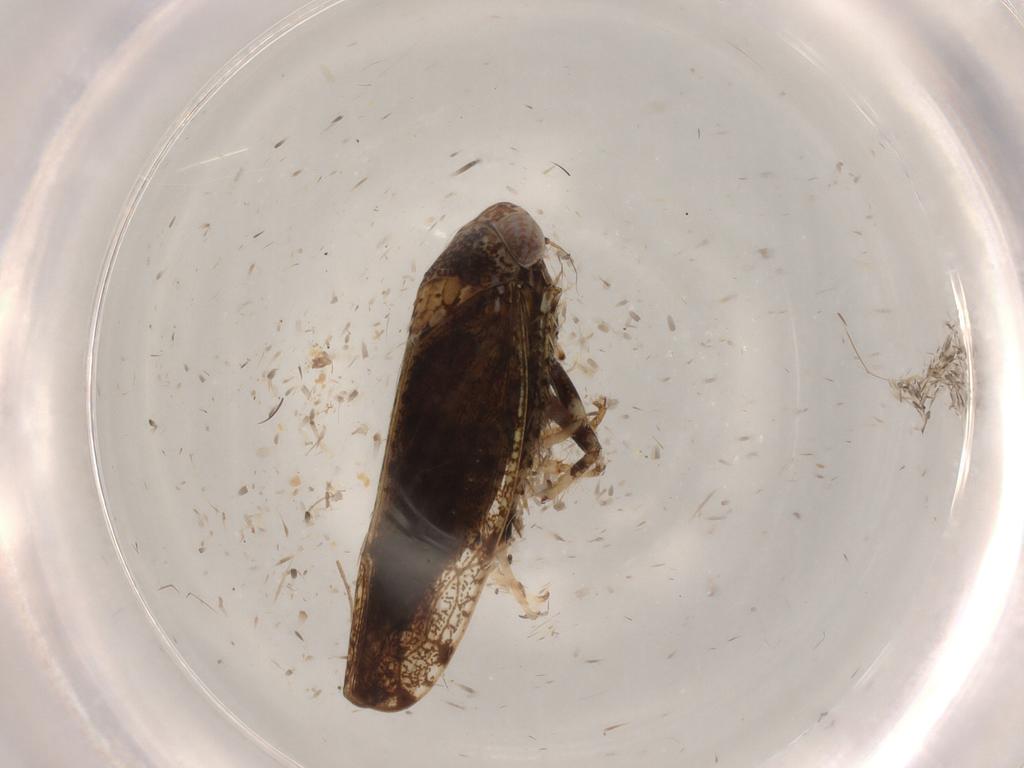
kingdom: Animalia
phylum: Arthropoda
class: Insecta
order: Hemiptera
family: Cicadellidae
